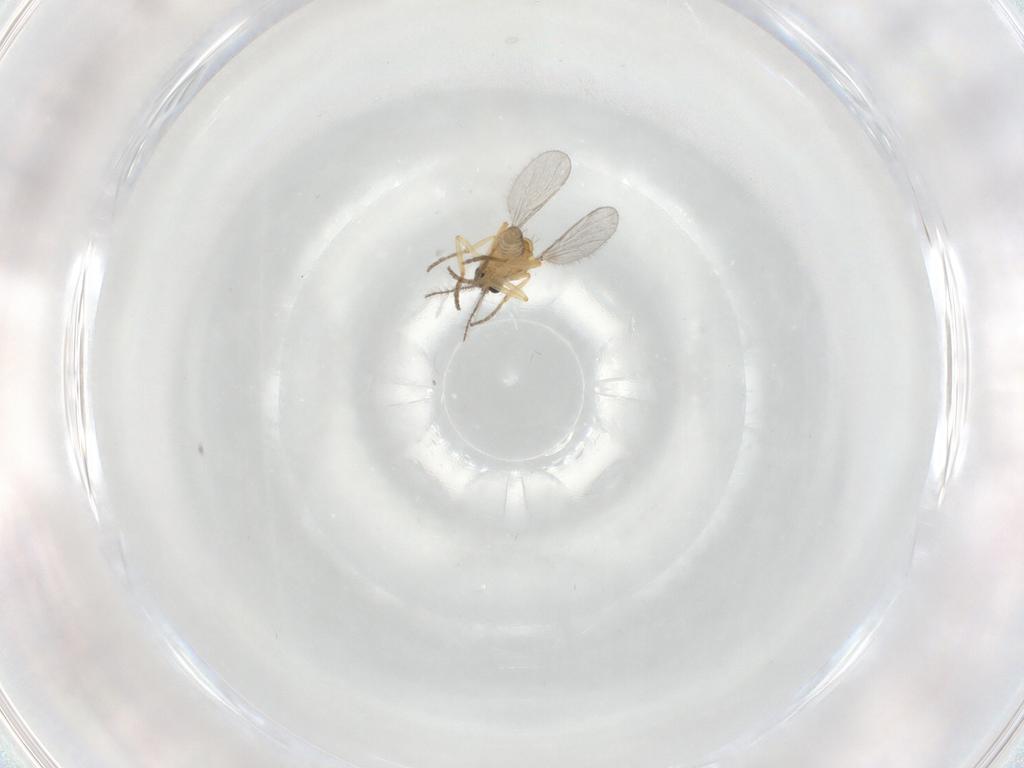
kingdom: Animalia
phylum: Arthropoda
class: Insecta
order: Diptera
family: Ceratopogonidae
